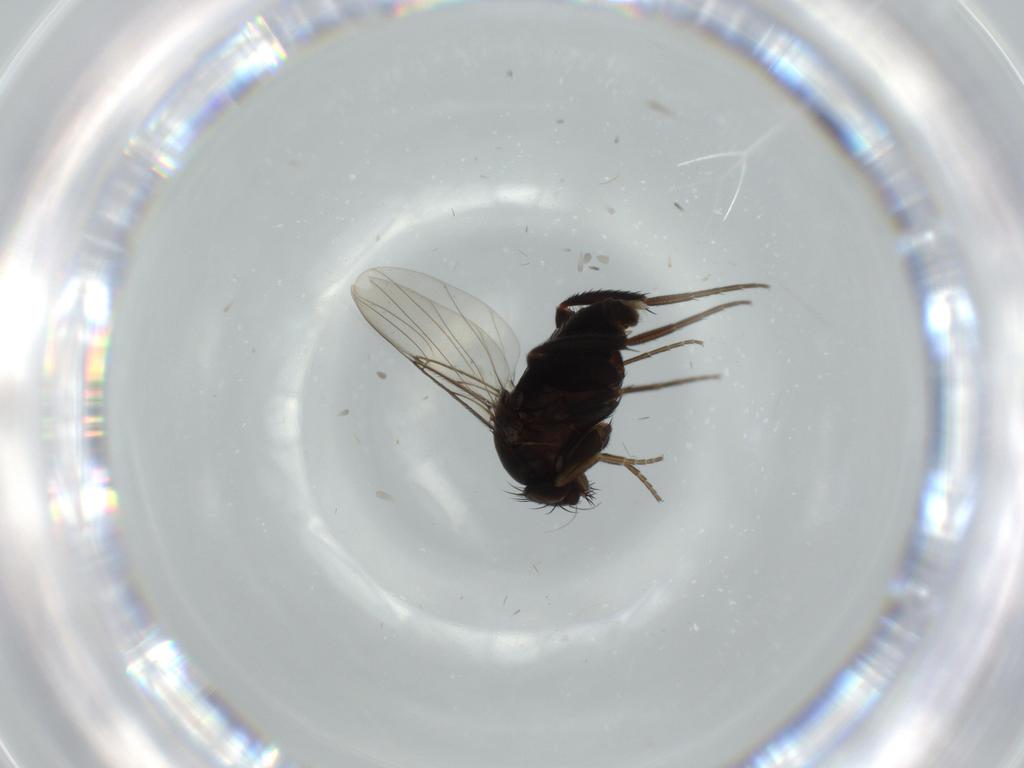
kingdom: Animalia
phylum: Arthropoda
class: Insecta
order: Diptera
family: Phoridae
